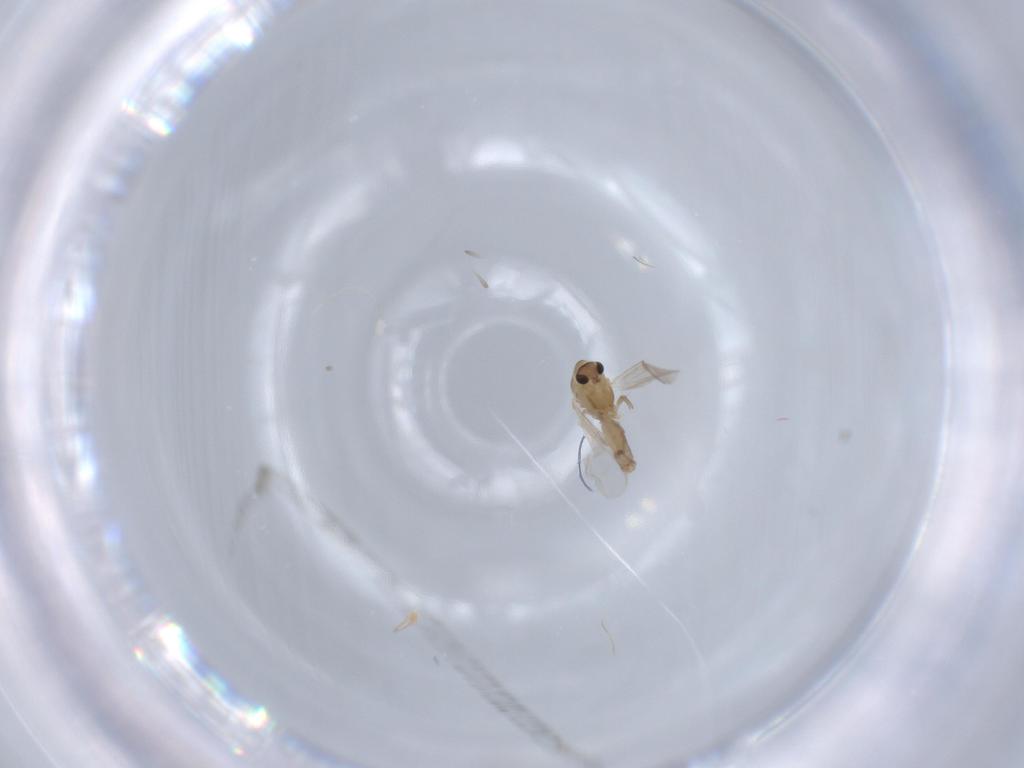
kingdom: Animalia
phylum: Arthropoda
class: Insecta
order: Diptera
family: Chironomidae
